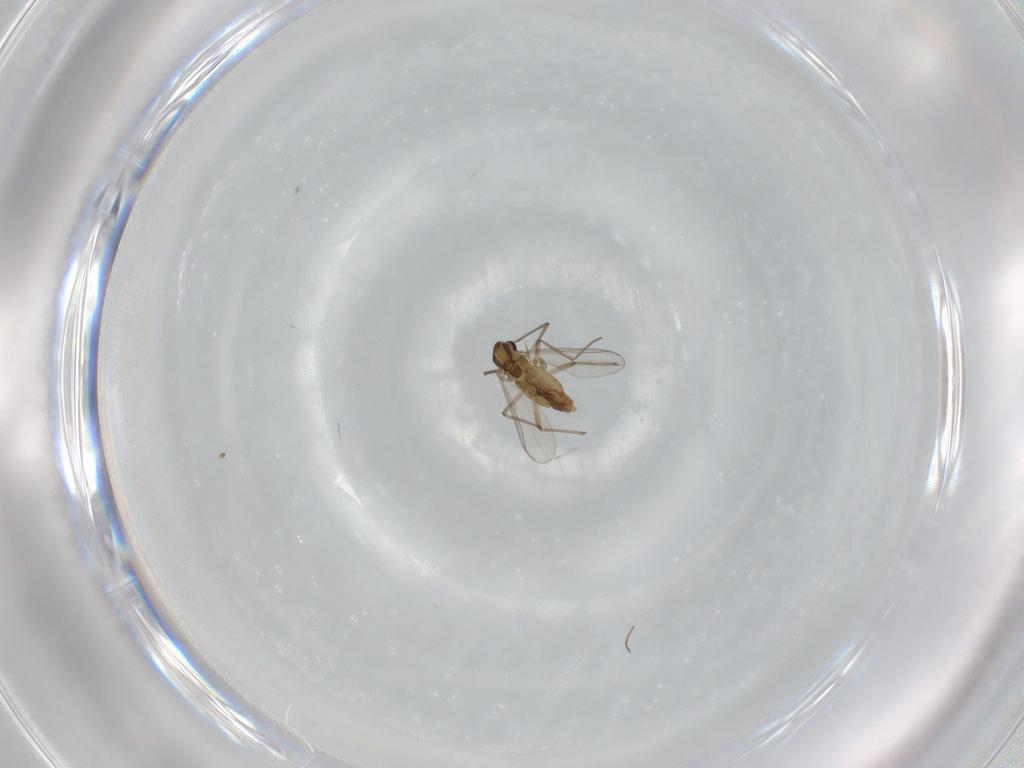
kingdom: Animalia
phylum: Arthropoda
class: Insecta
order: Diptera
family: Chironomidae
